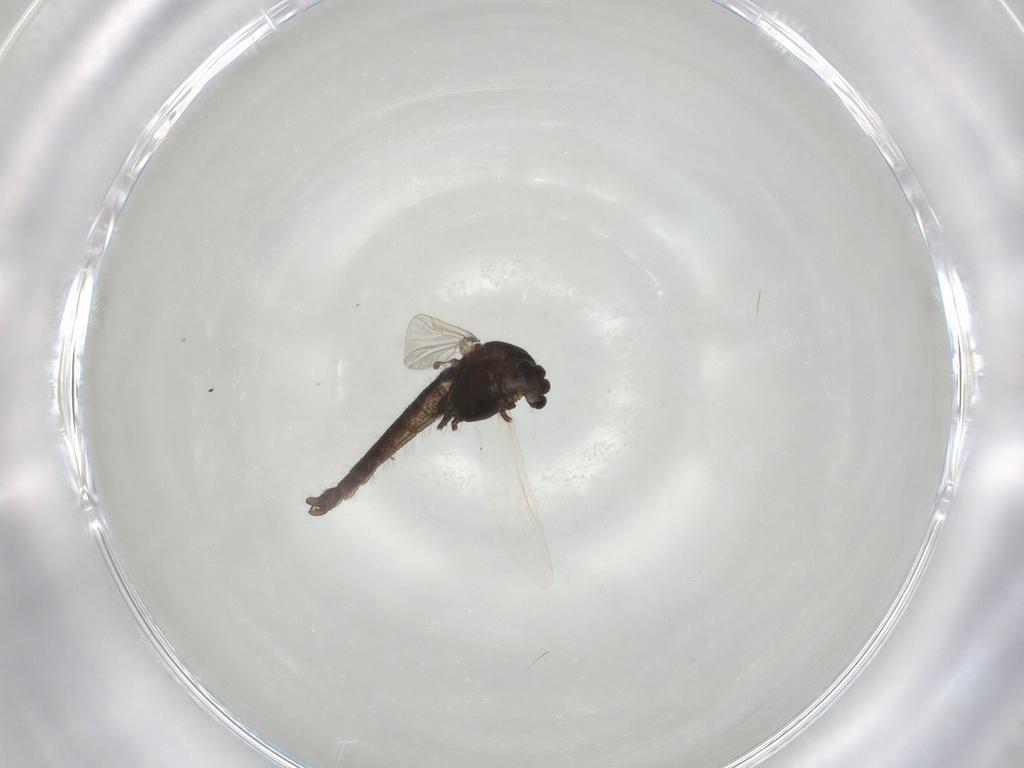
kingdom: Animalia
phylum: Arthropoda
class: Insecta
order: Diptera
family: Chironomidae
